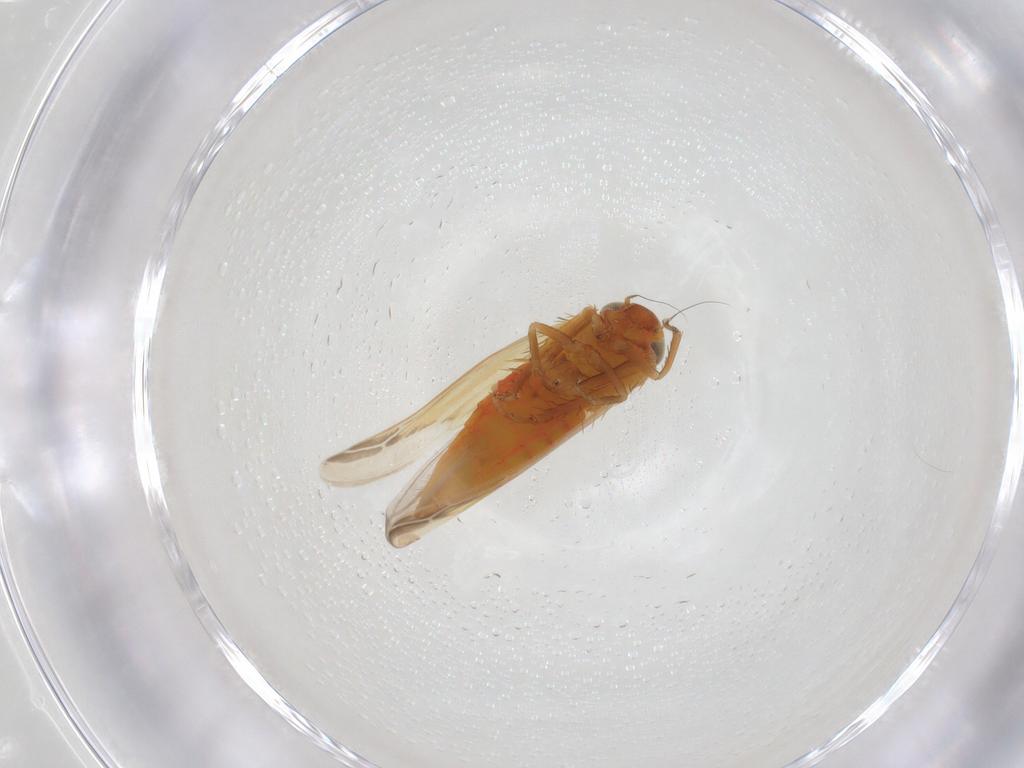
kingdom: Animalia
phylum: Arthropoda
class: Insecta
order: Hemiptera
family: Cicadellidae
